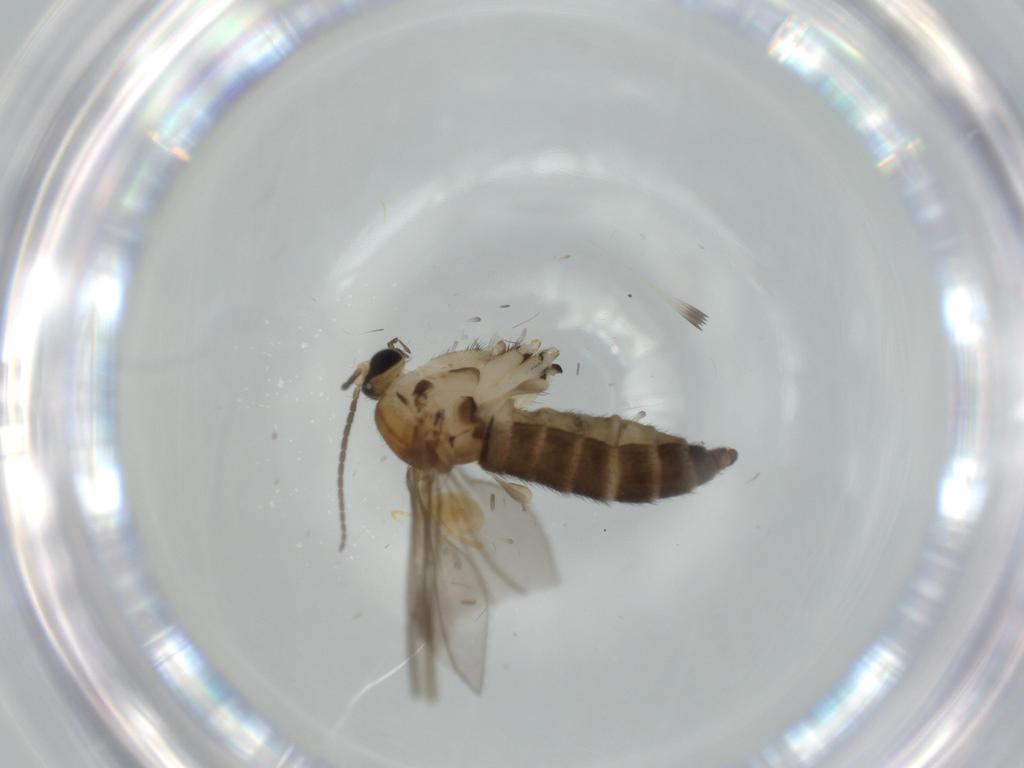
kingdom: Animalia
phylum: Arthropoda
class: Insecta
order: Diptera
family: Sciaridae
